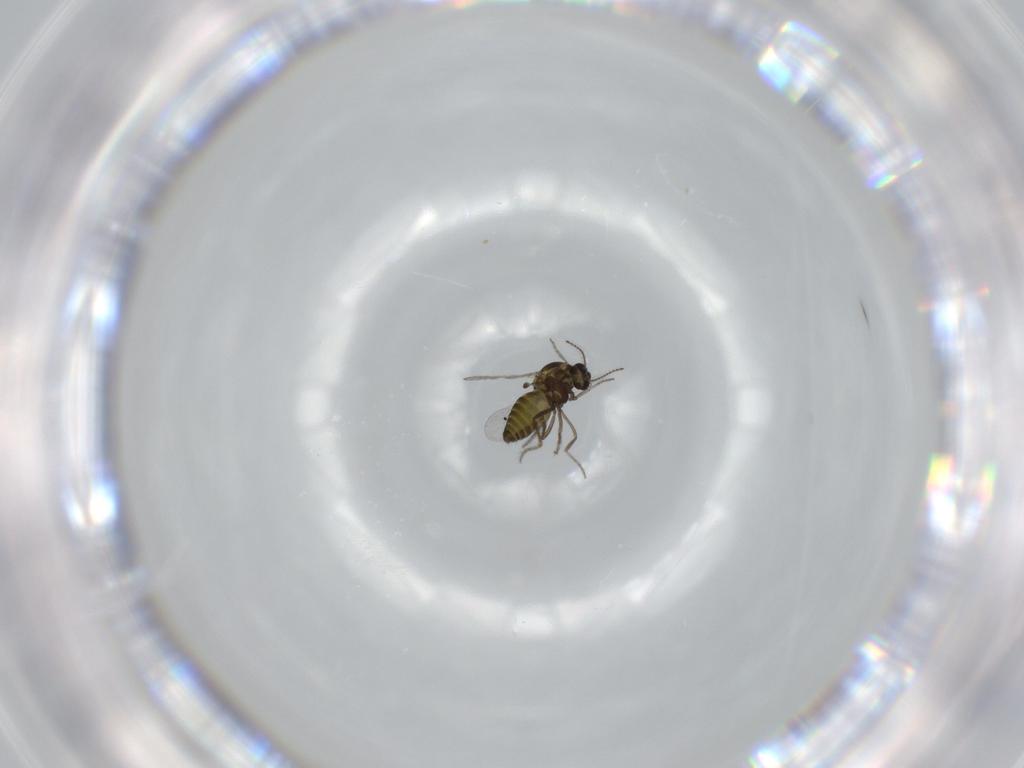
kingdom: Animalia
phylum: Arthropoda
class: Insecta
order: Diptera
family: Ceratopogonidae
